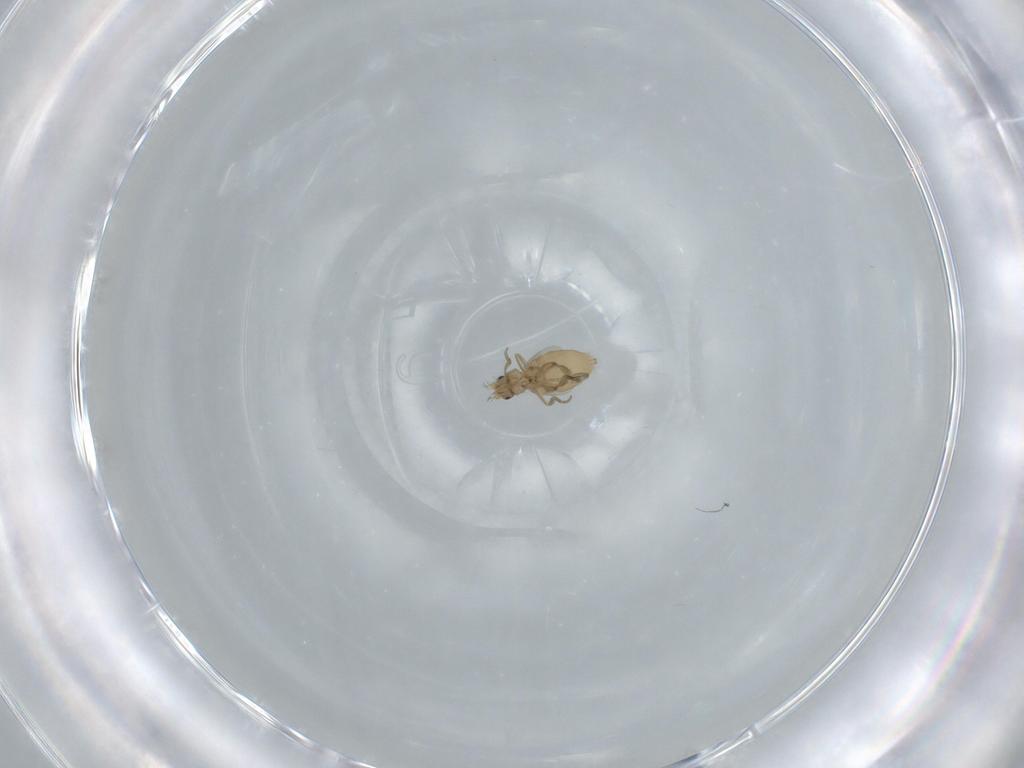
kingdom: Animalia
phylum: Arthropoda
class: Insecta
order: Diptera
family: Phoridae
